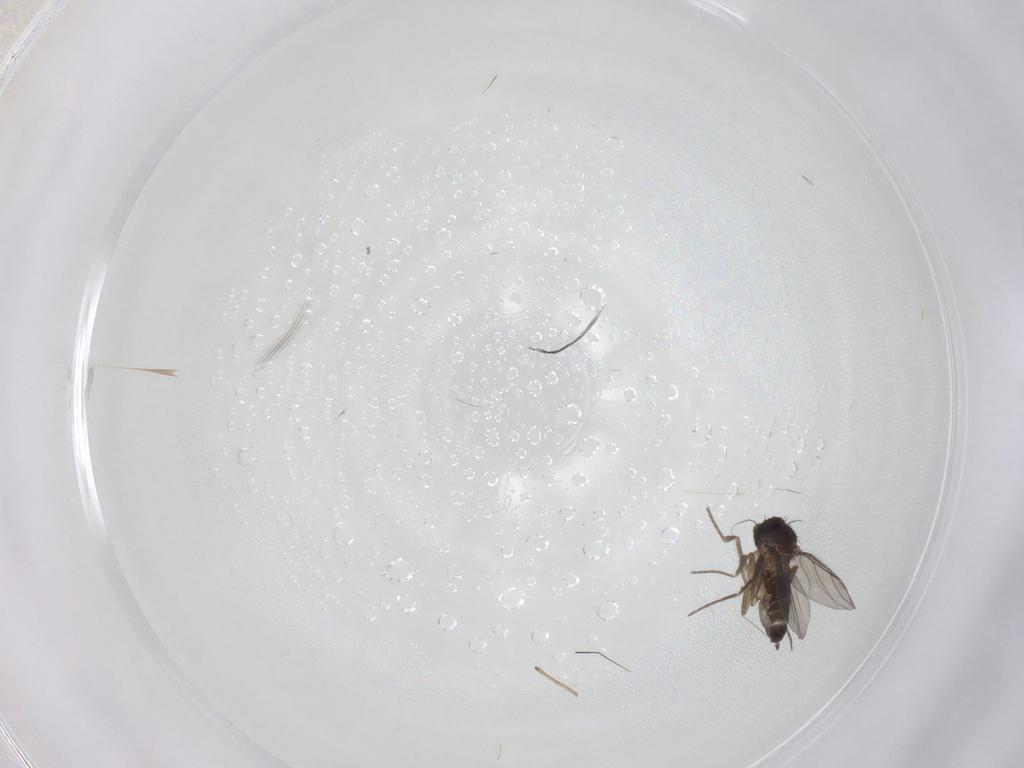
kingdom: Animalia
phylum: Arthropoda
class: Insecta
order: Diptera
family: Phoridae
